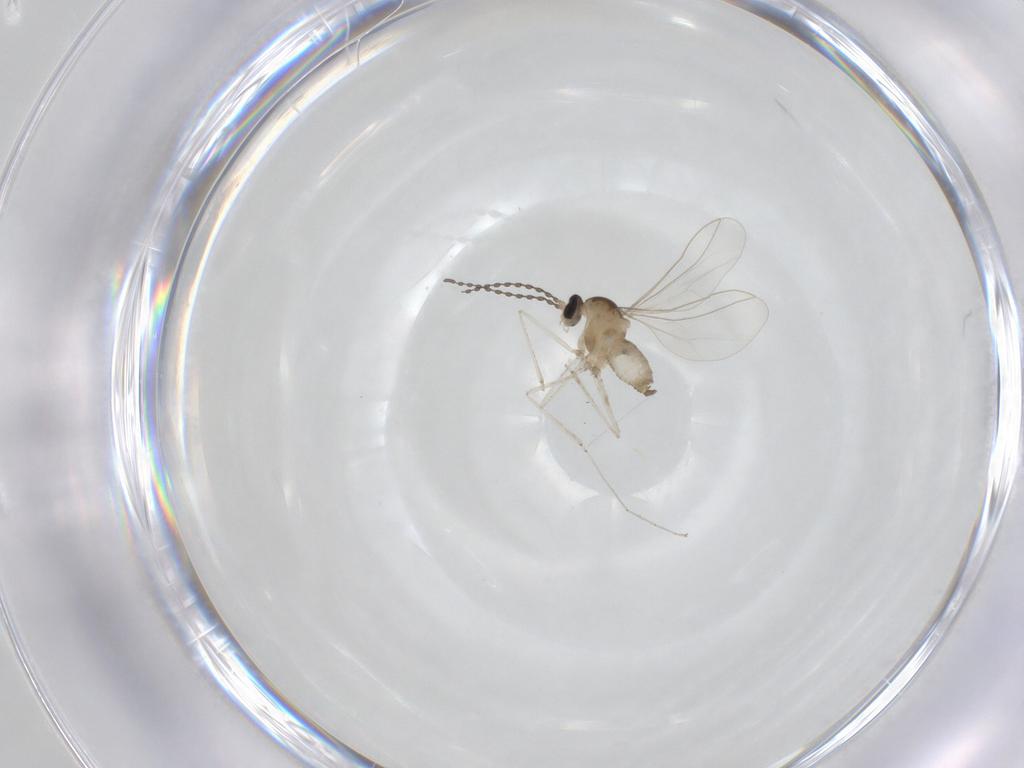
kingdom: Animalia
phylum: Arthropoda
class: Insecta
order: Diptera
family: Cecidomyiidae
